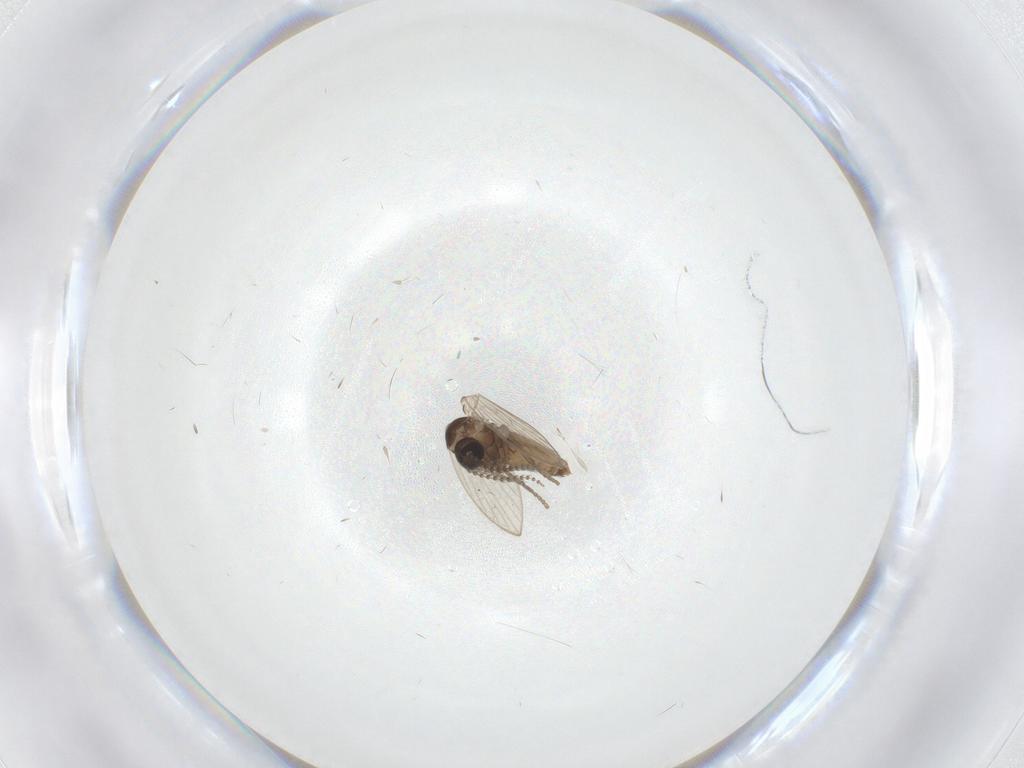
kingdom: Animalia
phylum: Arthropoda
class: Insecta
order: Diptera
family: Psychodidae
